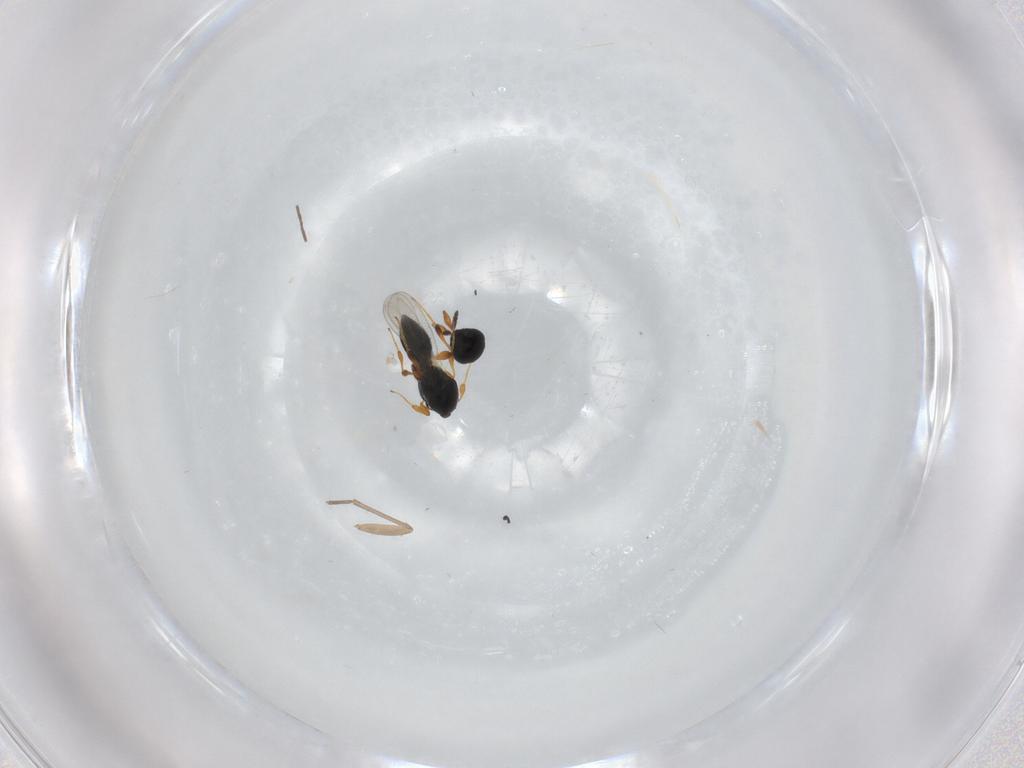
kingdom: Animalia
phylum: Arthropoda
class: Insecta
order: Hymenoptera
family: Platygastridae
